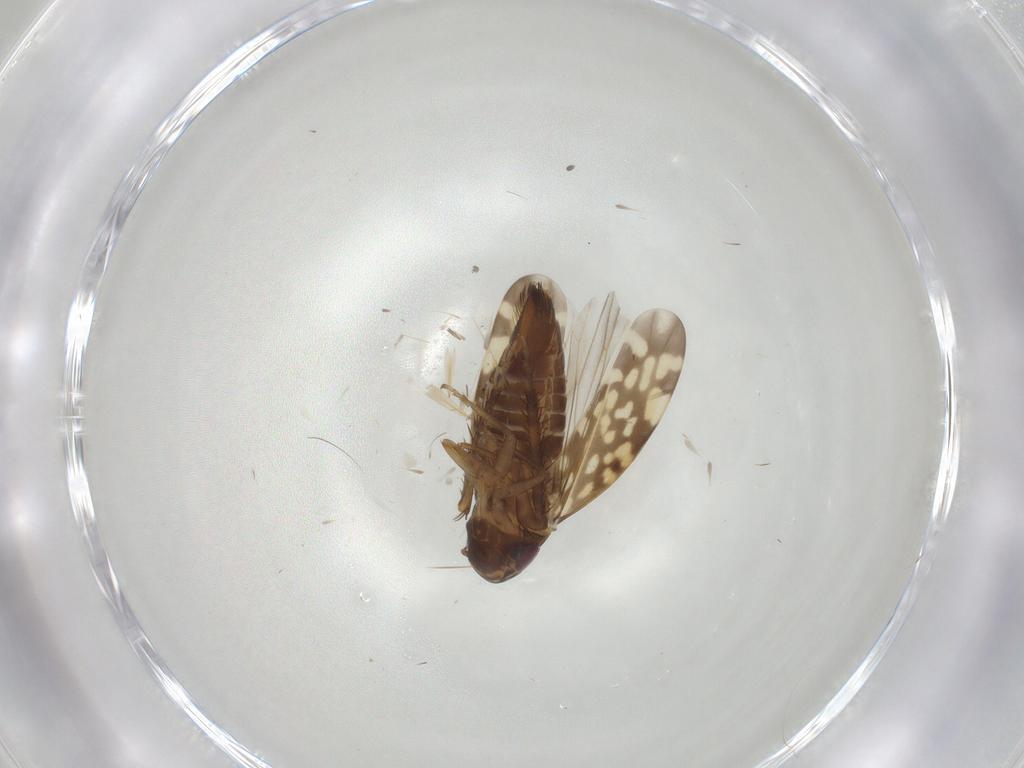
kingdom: Animalia
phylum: Arthropoda
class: Insecta
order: Hemiptera
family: Cicadellidae
